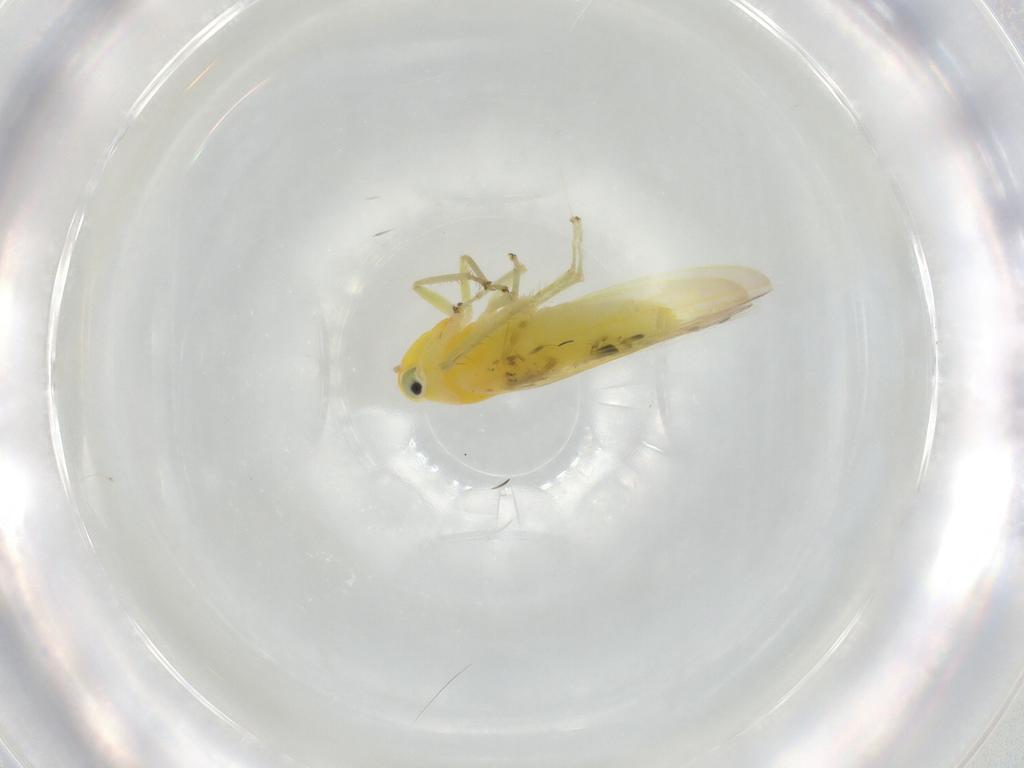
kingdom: Animalia
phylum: Arthropoda
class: Insecta
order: Hemiptera
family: Cicadellidae
